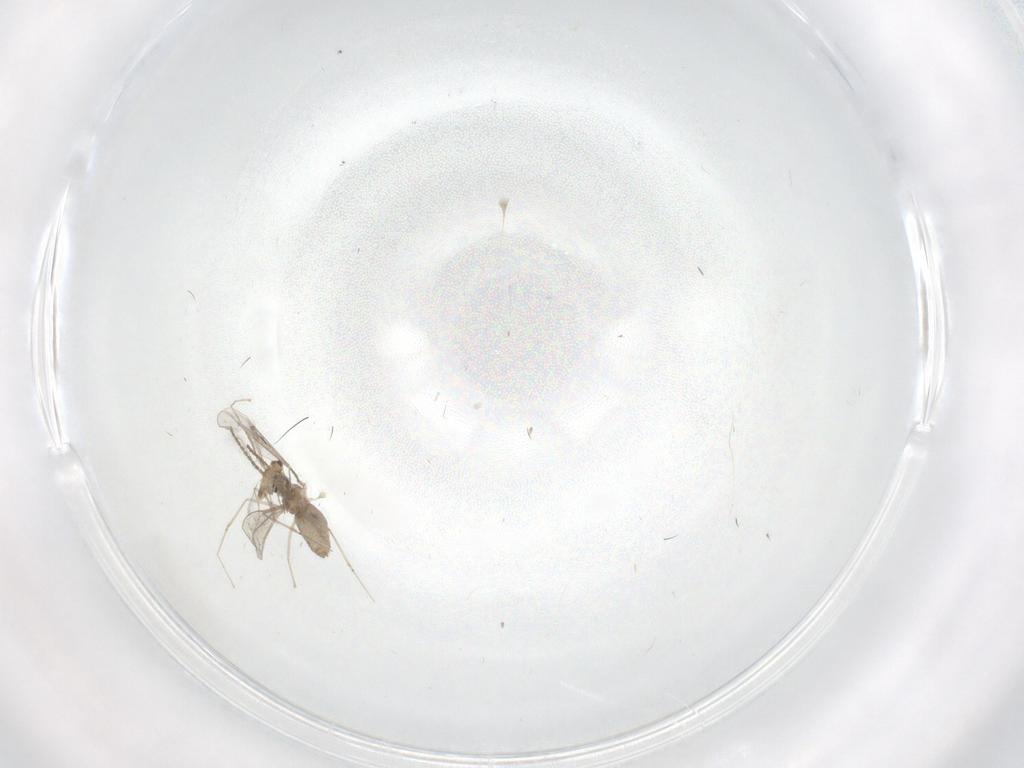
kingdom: Animalia
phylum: Arthropoda
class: Insecta
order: Diptera
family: Cecidomyiidae
